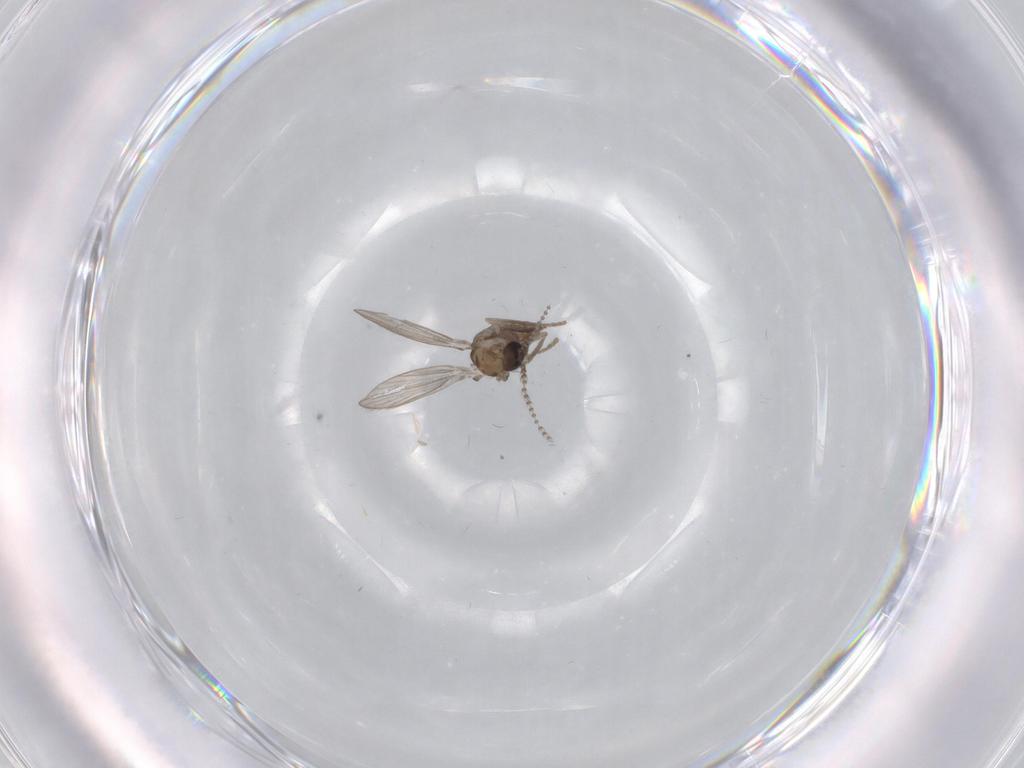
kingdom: Animalia
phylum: Arthropoda
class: Insecta
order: Diptera
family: Psychodidae
